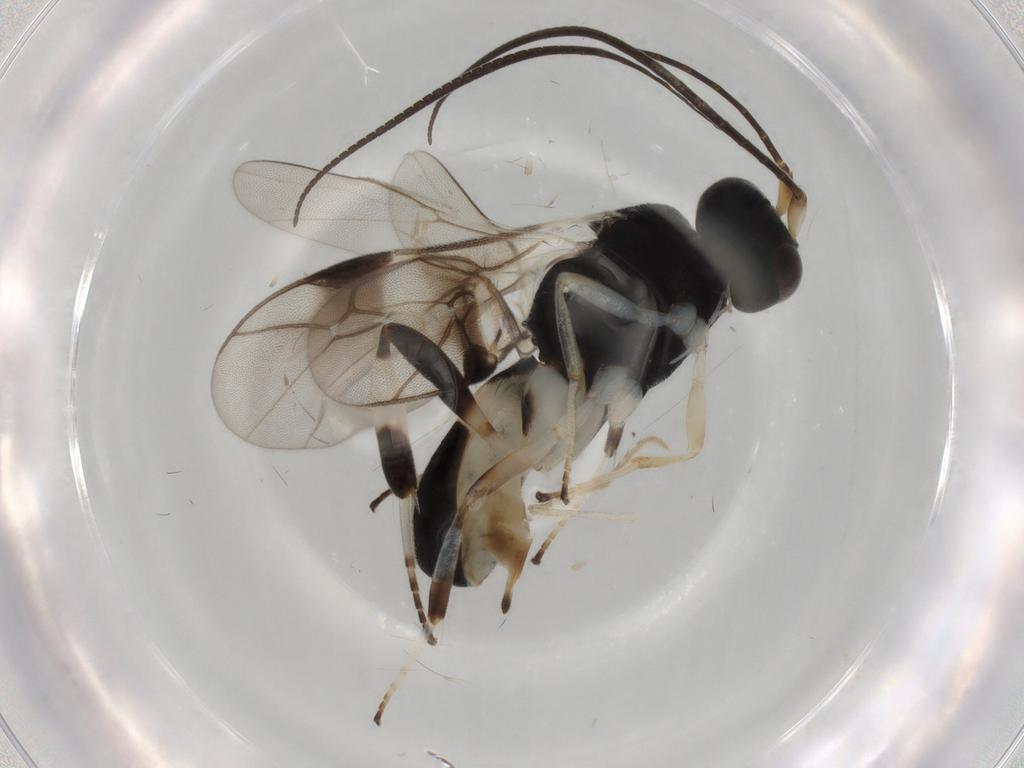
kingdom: Animalia
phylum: Arthropoda
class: Insecta
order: Hymenoptera
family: Braconidae
